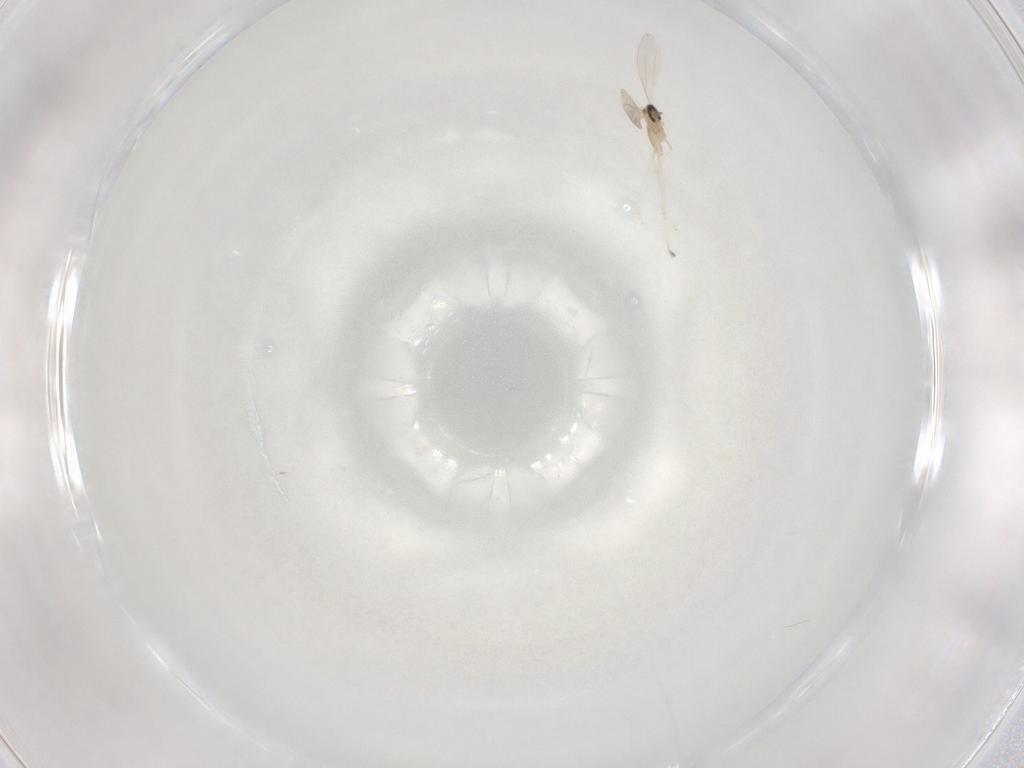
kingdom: Animalia
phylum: Arthropoda
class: Insecta
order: Diptera
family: Cecidomyiidae
